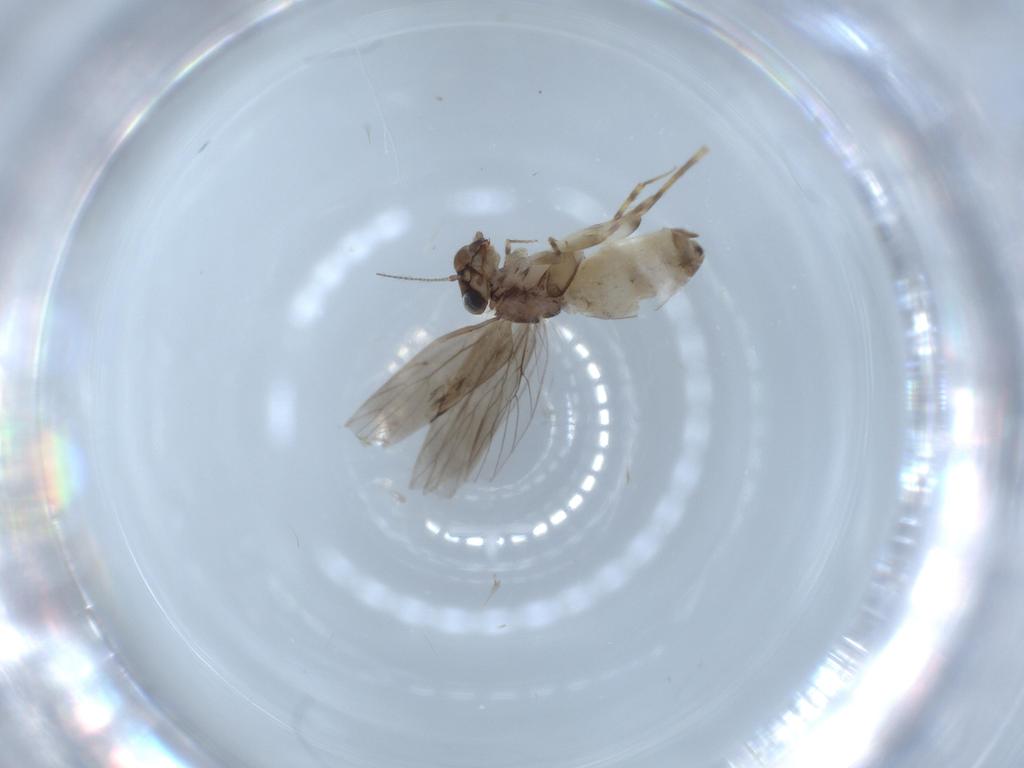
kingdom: Animalia
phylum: Arthropoda
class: Insecta
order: Psocodea
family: Lepidopsocidae
